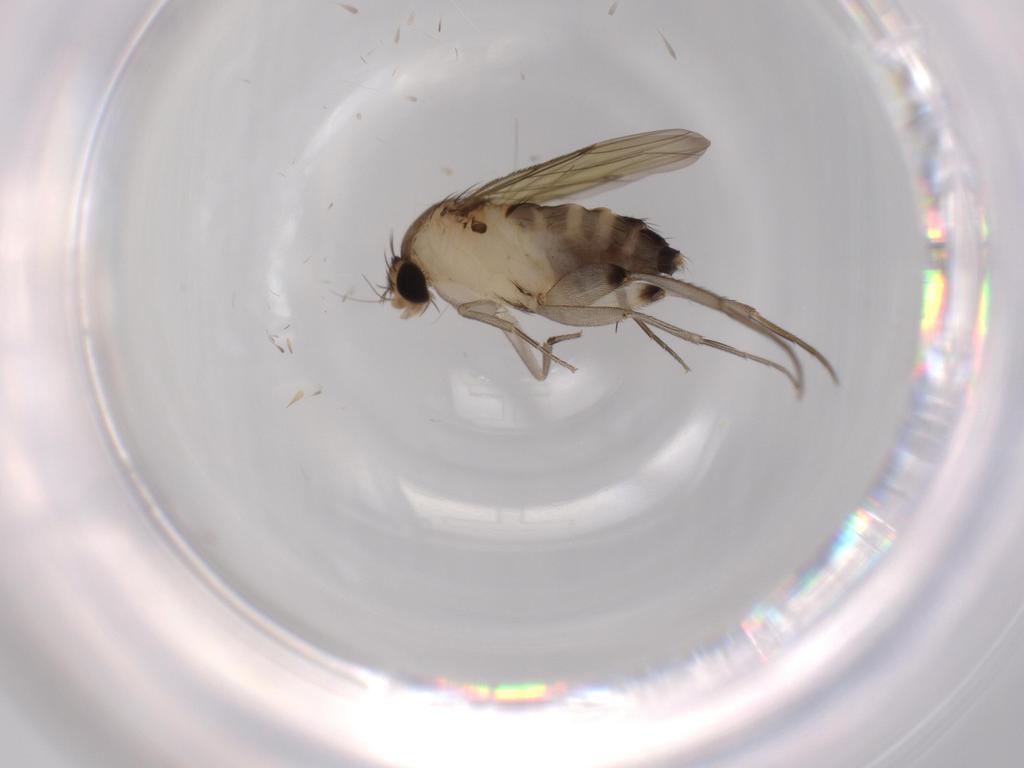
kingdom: Animalia
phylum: Arthropoda
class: Insecta
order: Diptera
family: Phoridae
